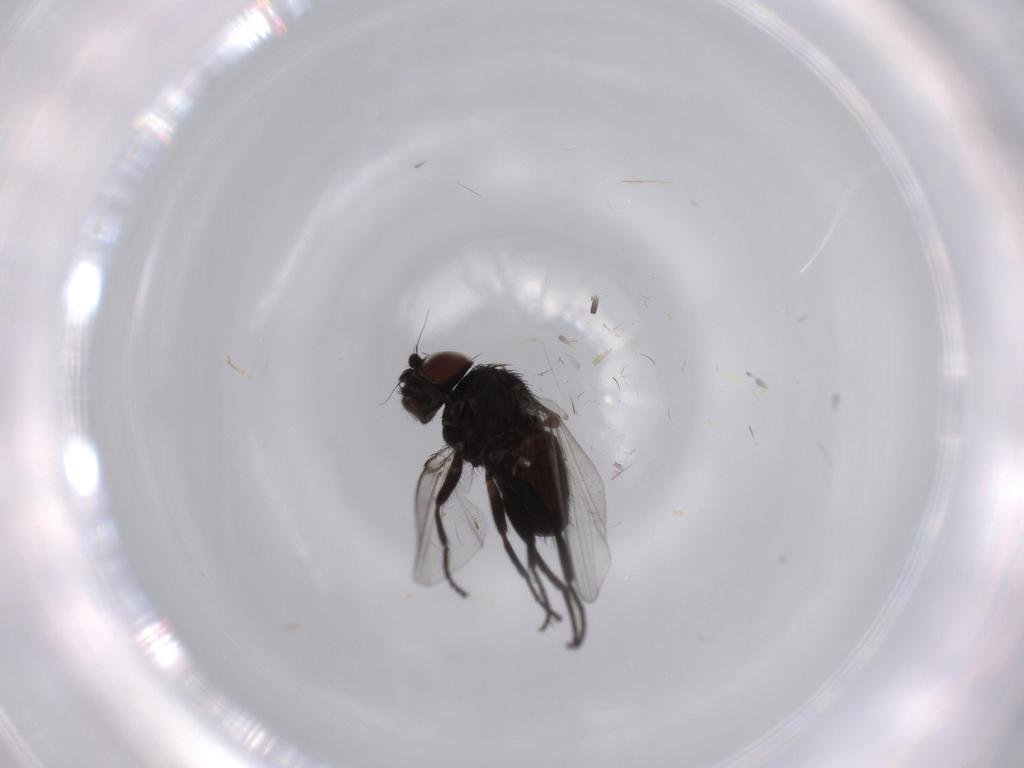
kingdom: Animalia
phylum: Arthropoda
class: Insecta
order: Diptera
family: Milichiidae
